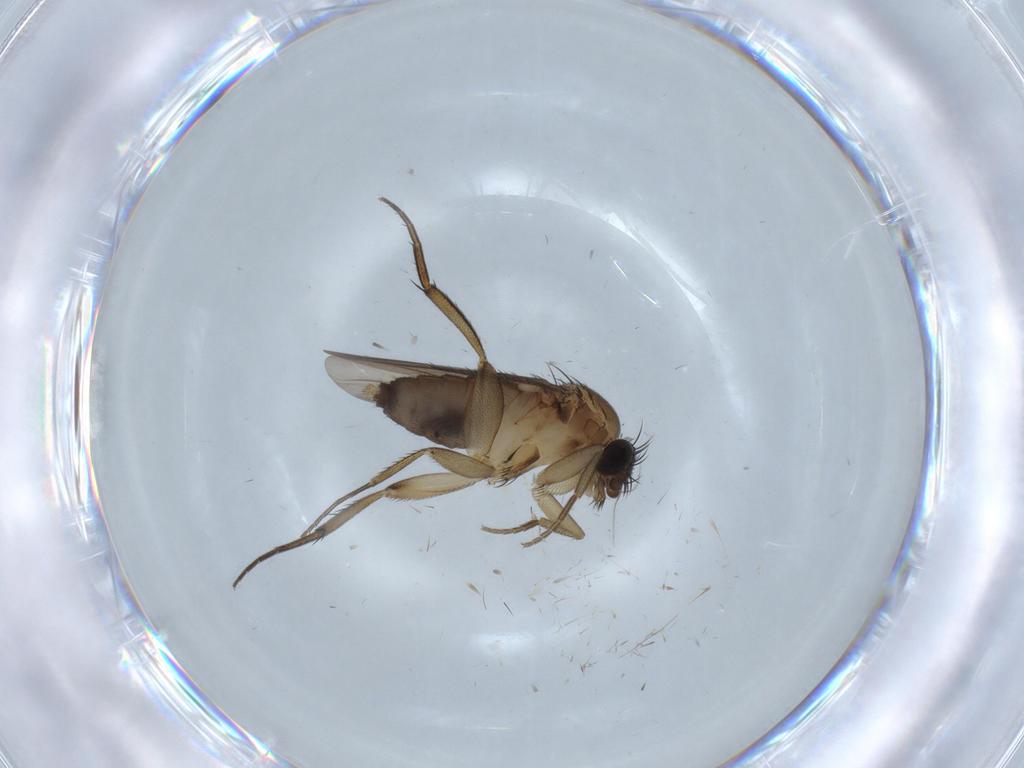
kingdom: Animalia
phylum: Arthropoda
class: Insecta
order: Diptera
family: Phoridae
